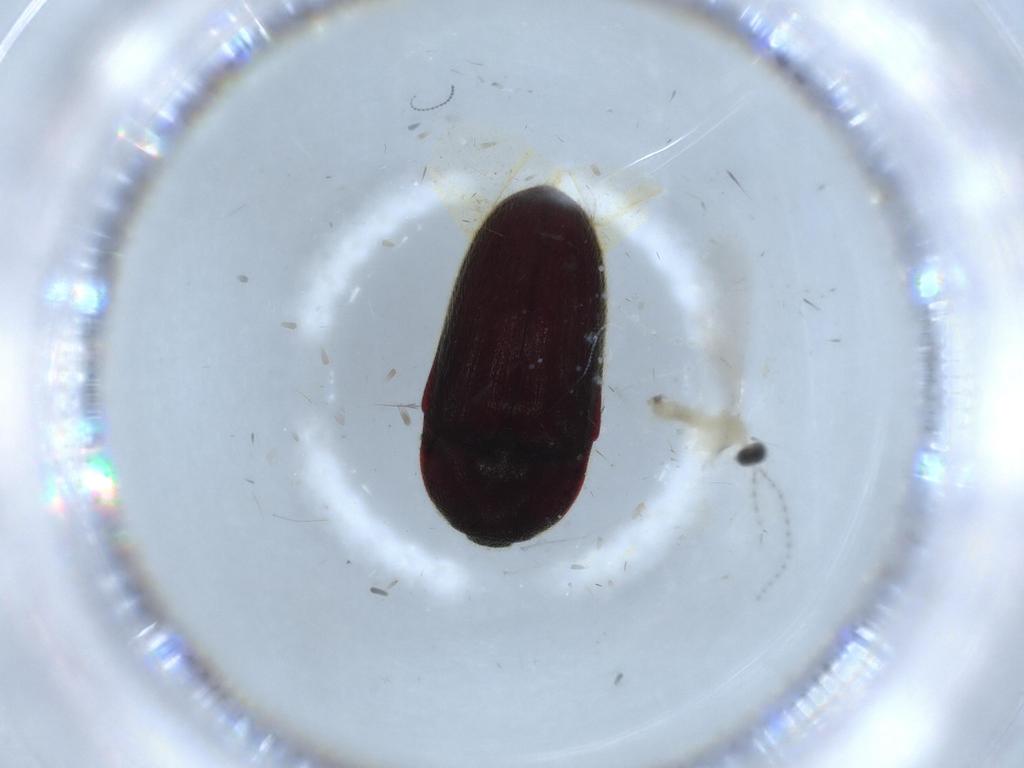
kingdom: Animalia
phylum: Arthropoda
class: Insecta
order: Coleoptera
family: Throscidae
